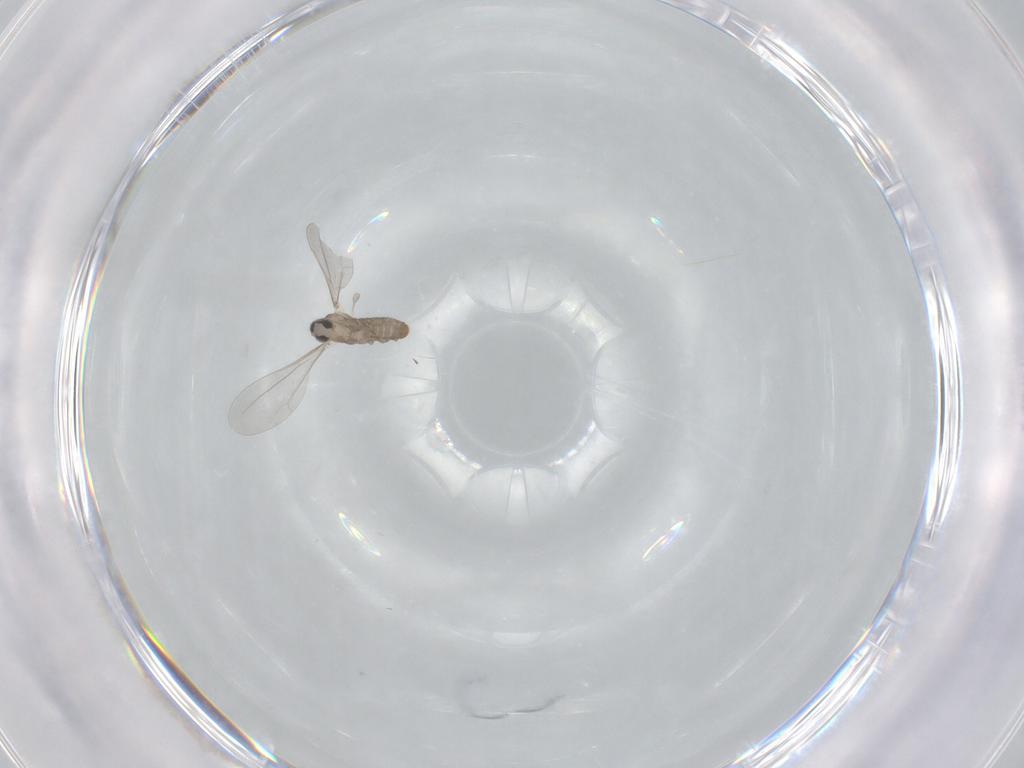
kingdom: Animalia
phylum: Arthropoda
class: Insecta
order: Diptera
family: Cecidomyiidae
